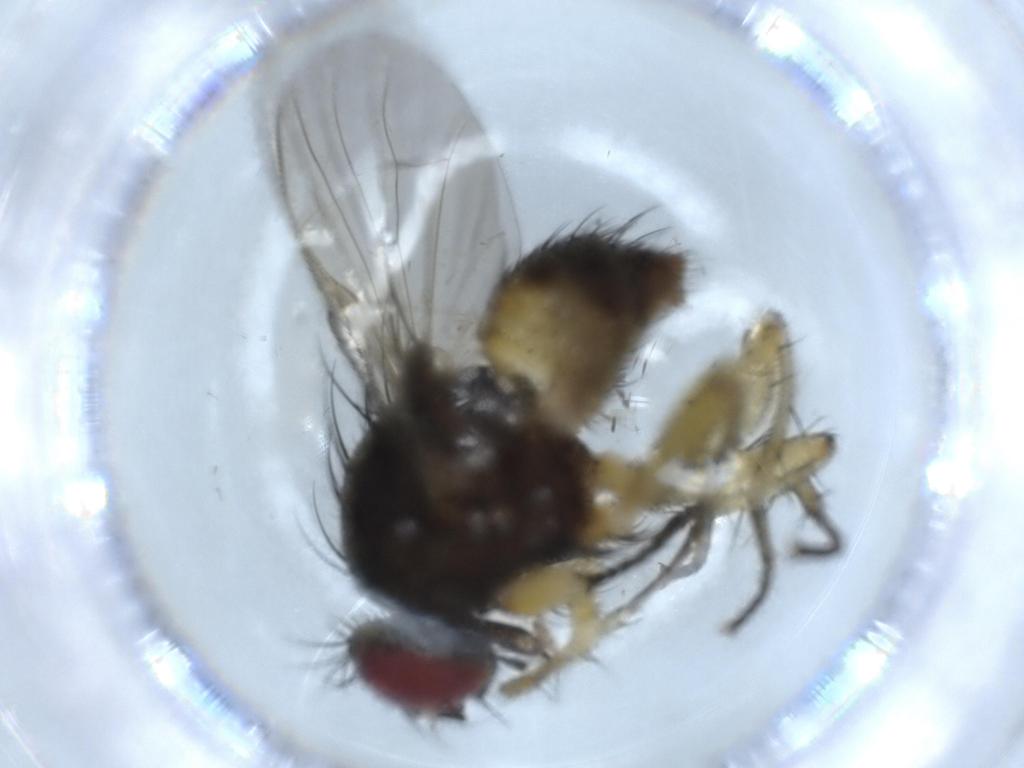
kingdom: Animalia
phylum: Arthropoda
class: Insecta
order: Diptera
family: Muscidae
